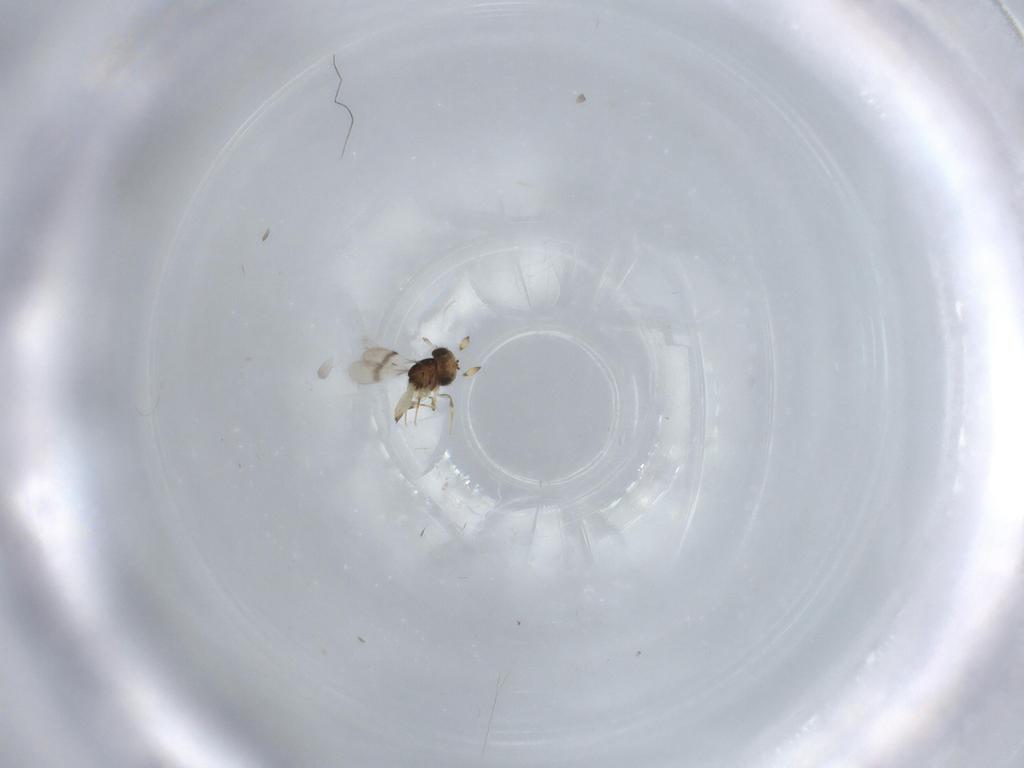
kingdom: Animalia
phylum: Arthropoda
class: Insecta
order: Hymenoptera
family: Scelionidae
